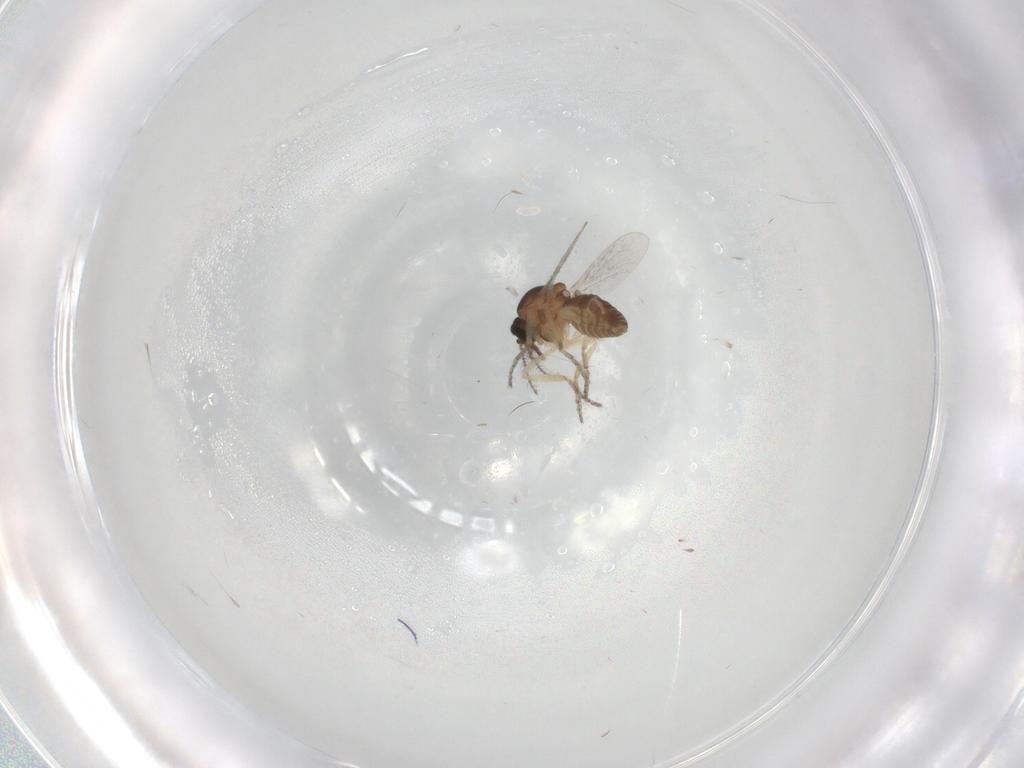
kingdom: Animalia
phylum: Arthropoda
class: Insecta
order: Diptera
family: Ceratopogonidae
